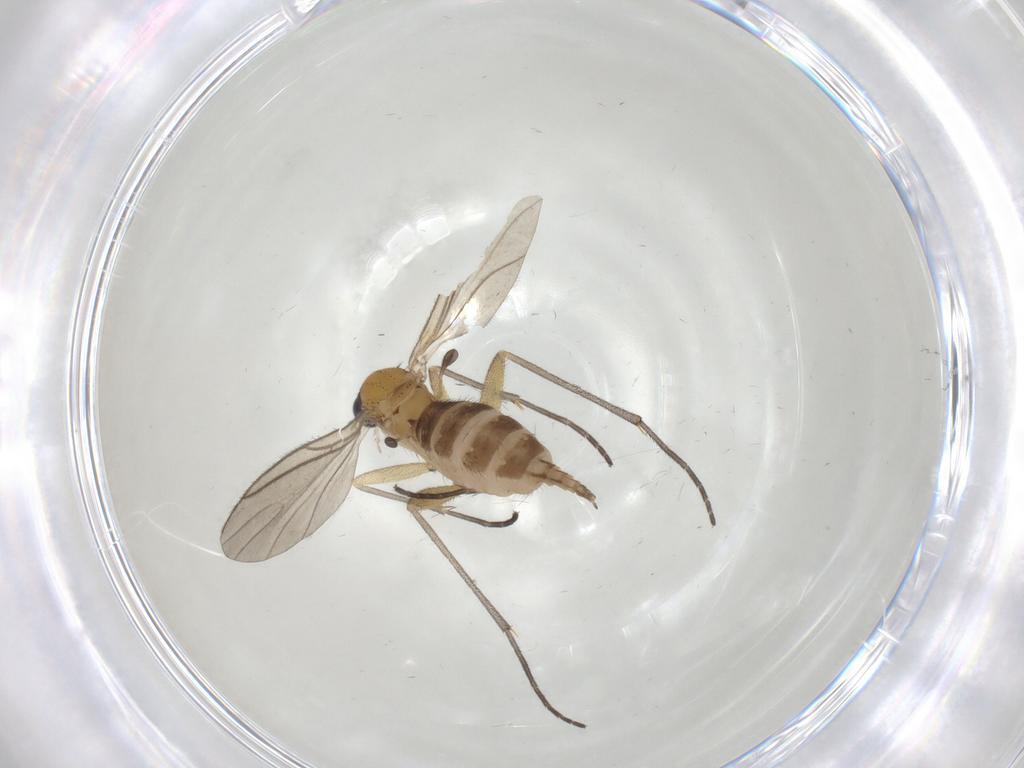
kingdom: Animalia
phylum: Arthropoda
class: Insecta
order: Diptera
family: Sciaridae
